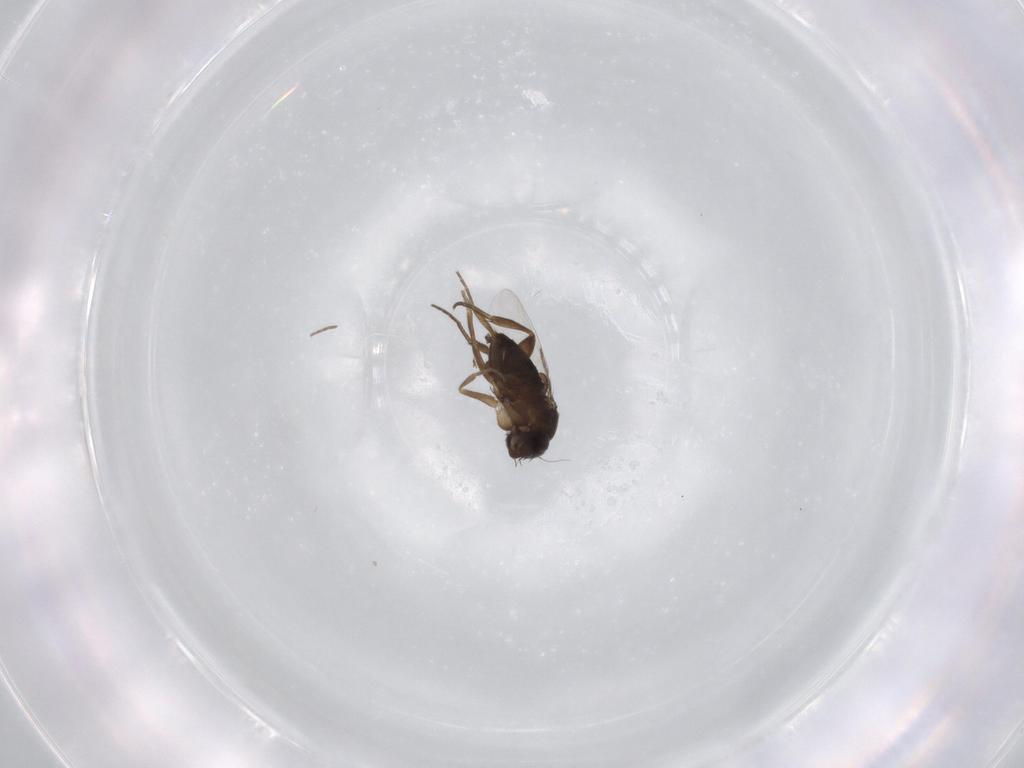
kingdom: Animalia
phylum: Arthropoda
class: Insecta
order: Diptera
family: Phoridae
